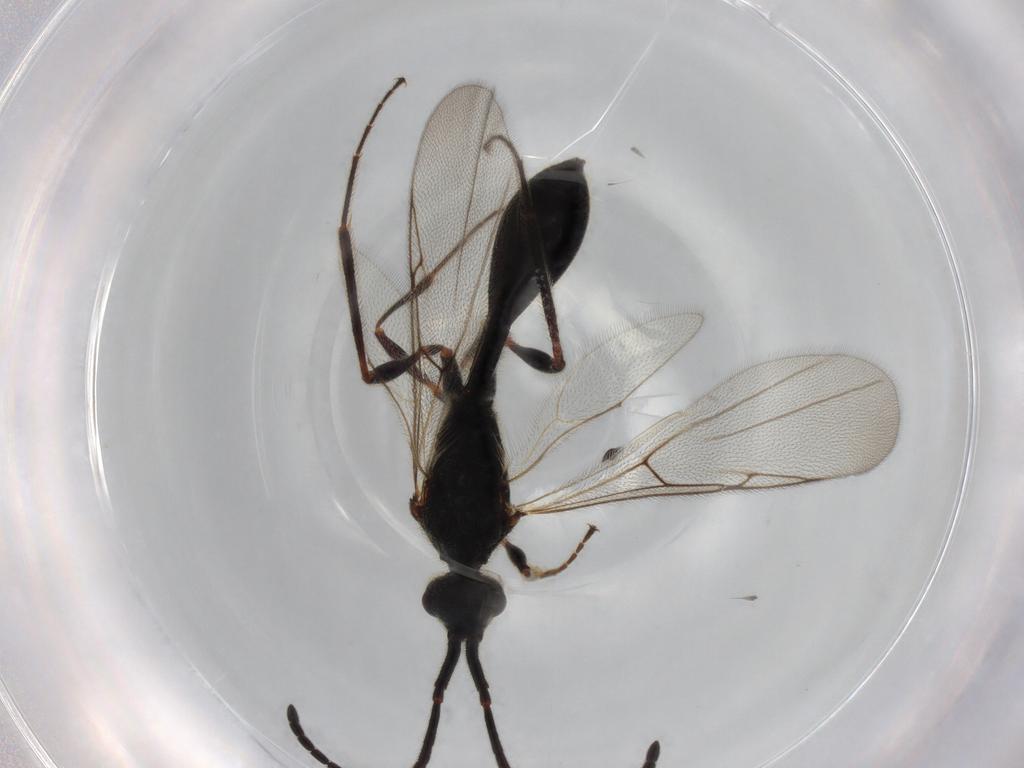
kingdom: Animalia
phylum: Arthropoda
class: Insecta
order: Hymenoptera
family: Diapriidae
